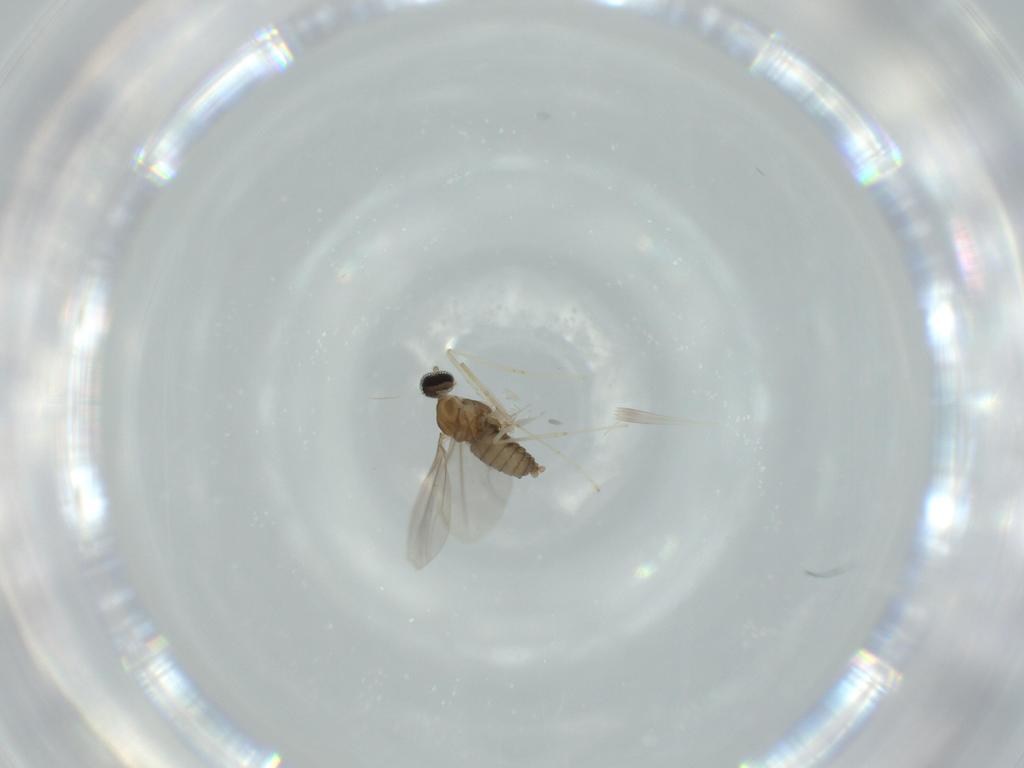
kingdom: Animalia
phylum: Arthropoda
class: Insecta
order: Diptera
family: Cecidomyiidae
